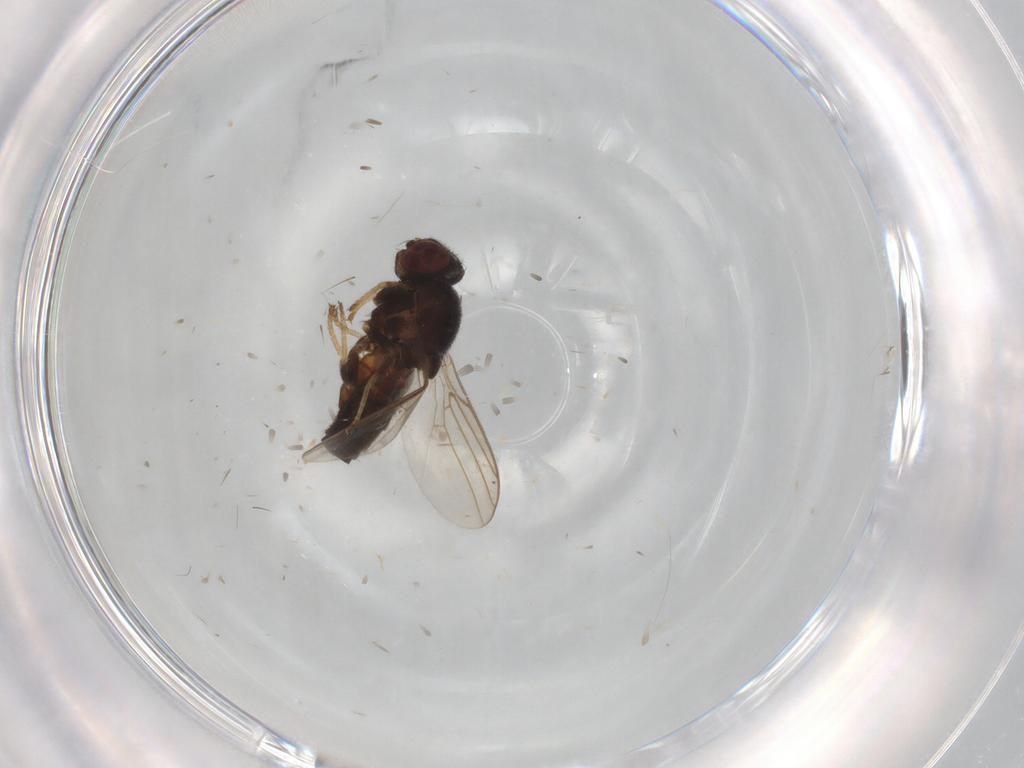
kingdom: Animalia
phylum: Arthropoda
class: Insecta
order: Diptera
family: Chloropidae
